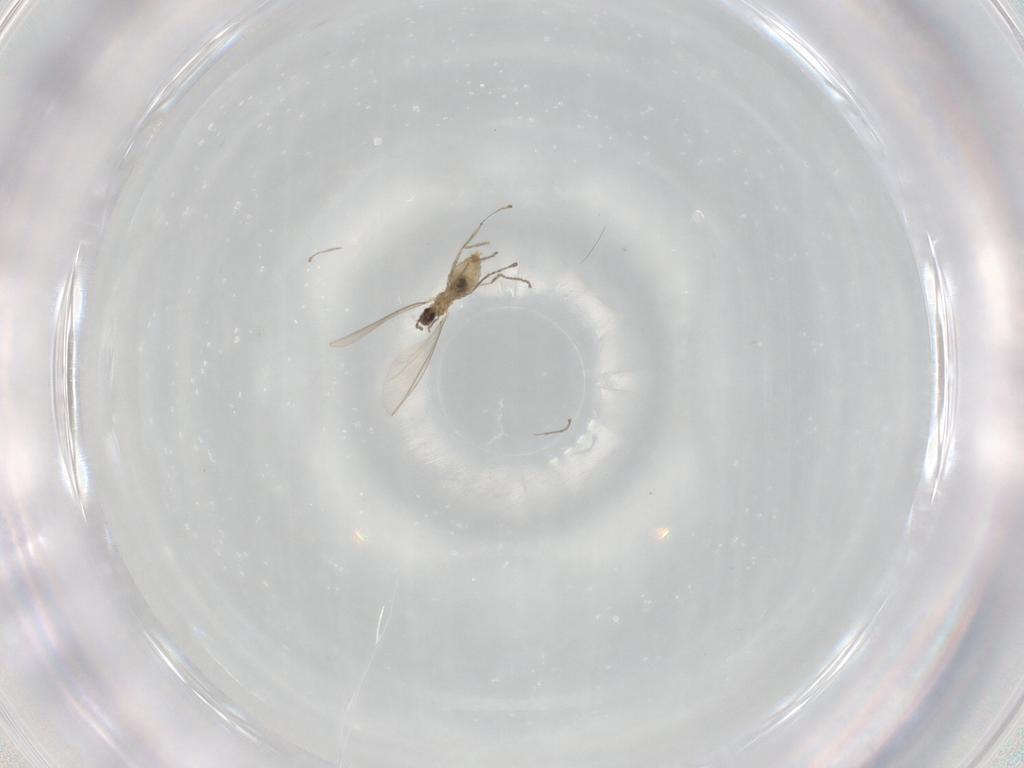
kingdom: Animalia
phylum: Arthropoda
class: Insecta
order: Diptera
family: Cecidomyiidae
